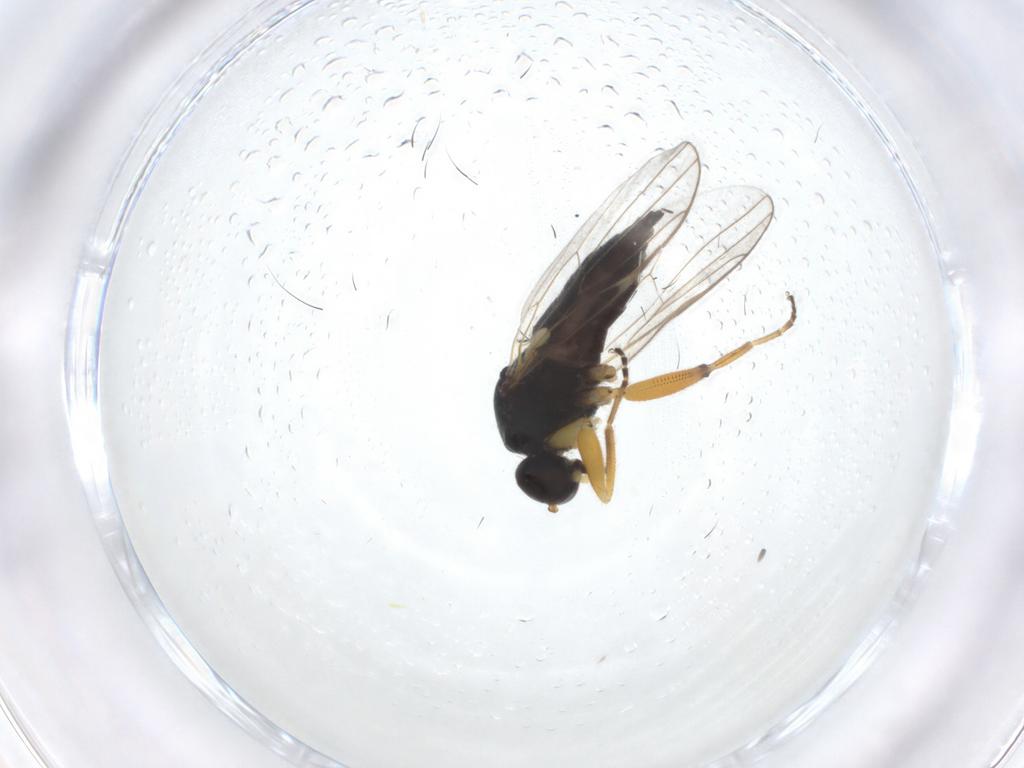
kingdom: Animalia
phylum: Arthropoda
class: Insecta
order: Diptera
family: Hybotidae
